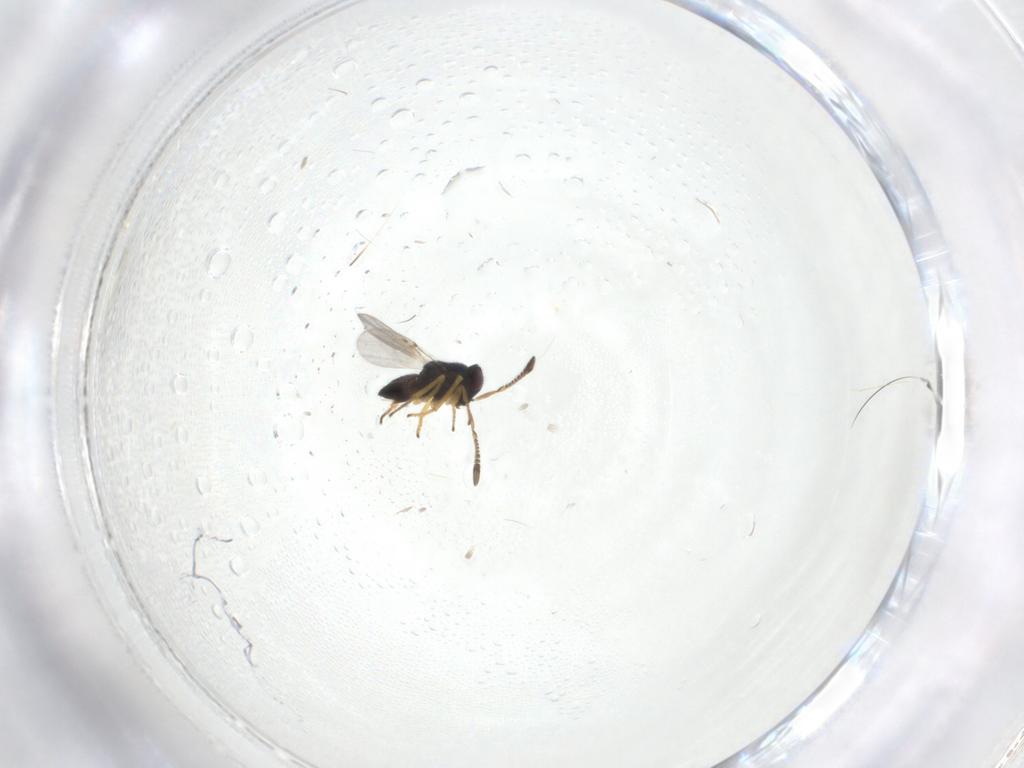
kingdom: Animalia
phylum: Arthropoda
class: Insecta
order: Hymenoptera
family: Encyrtidae
